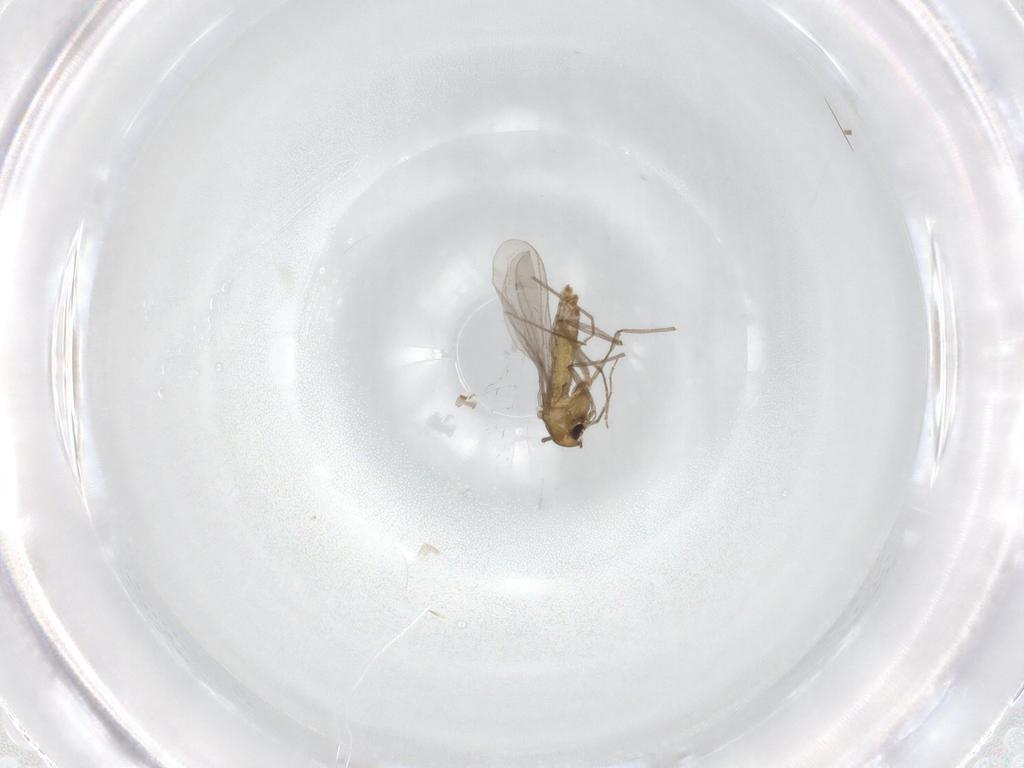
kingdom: Animalia
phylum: Arthropoda
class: Insecta
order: Diptera
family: Chironomidae
